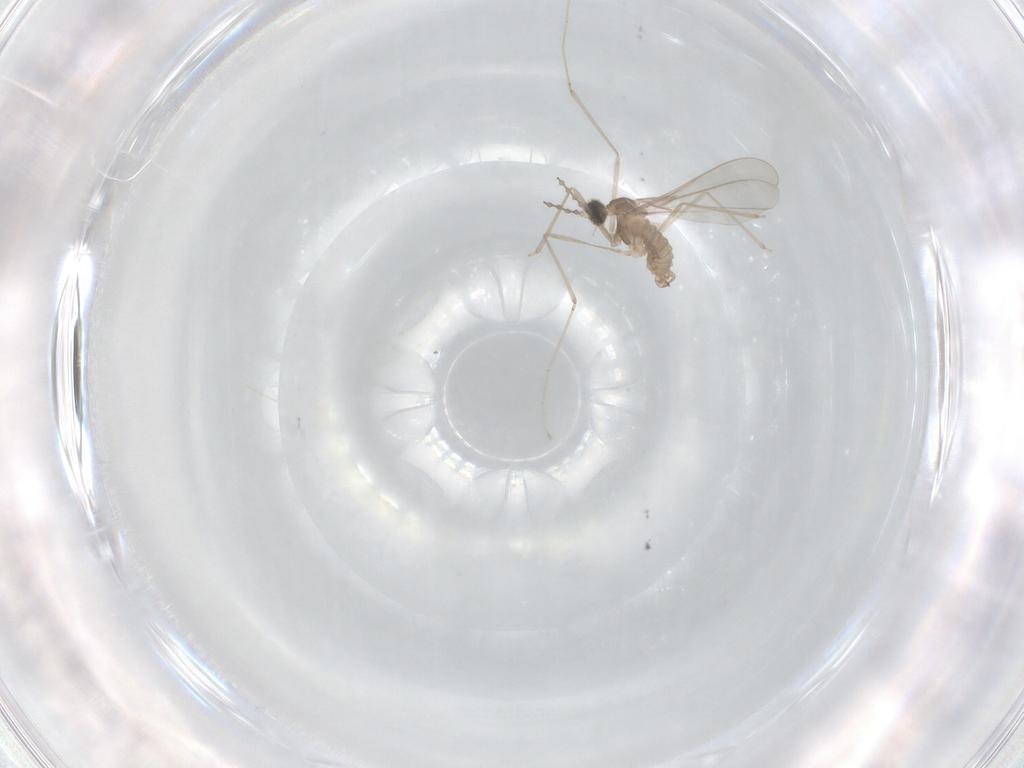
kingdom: Animalia
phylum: Arthropoda
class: Insecta
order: Diptera
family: Cecidomyiidae
